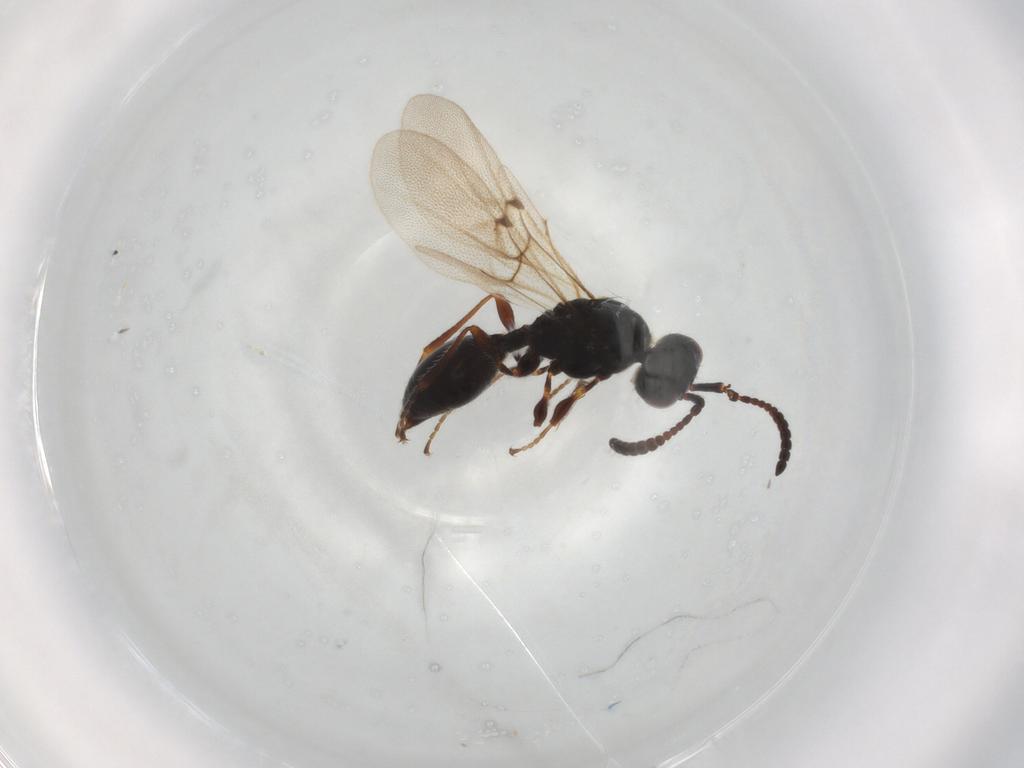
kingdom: Animalia
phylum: Arthropoda
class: Insecta
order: Hymenoptera
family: Diapriidae
